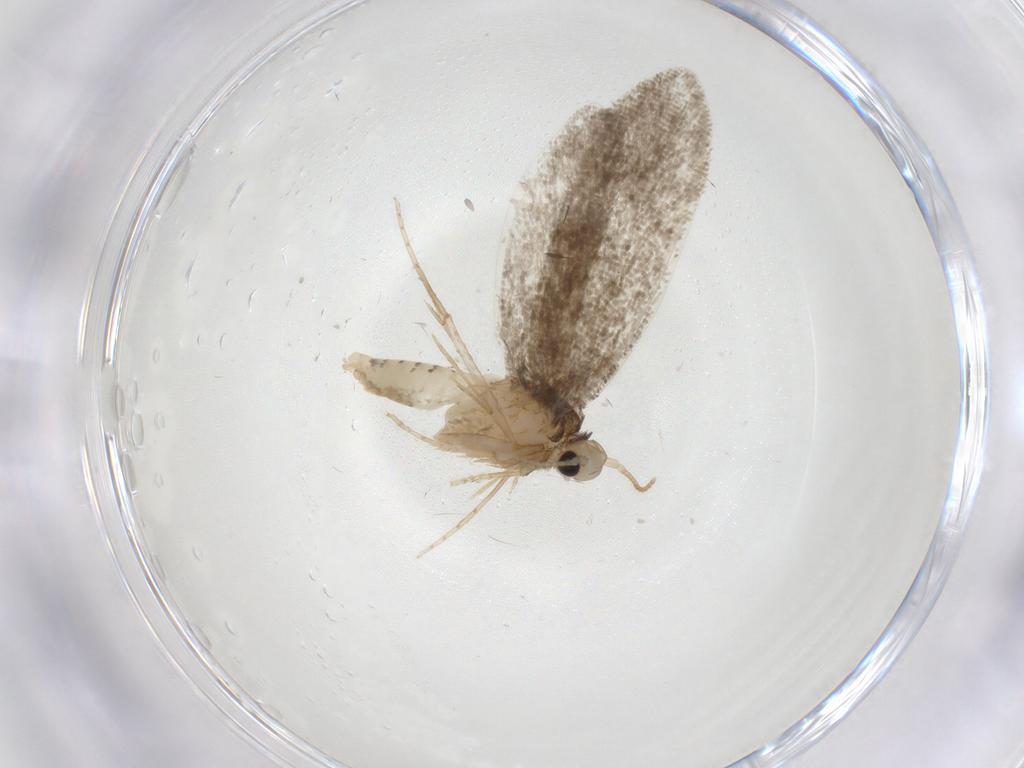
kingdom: Animalia
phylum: Arthropoda
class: Insecta
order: Lepidoptera
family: Psychidae
